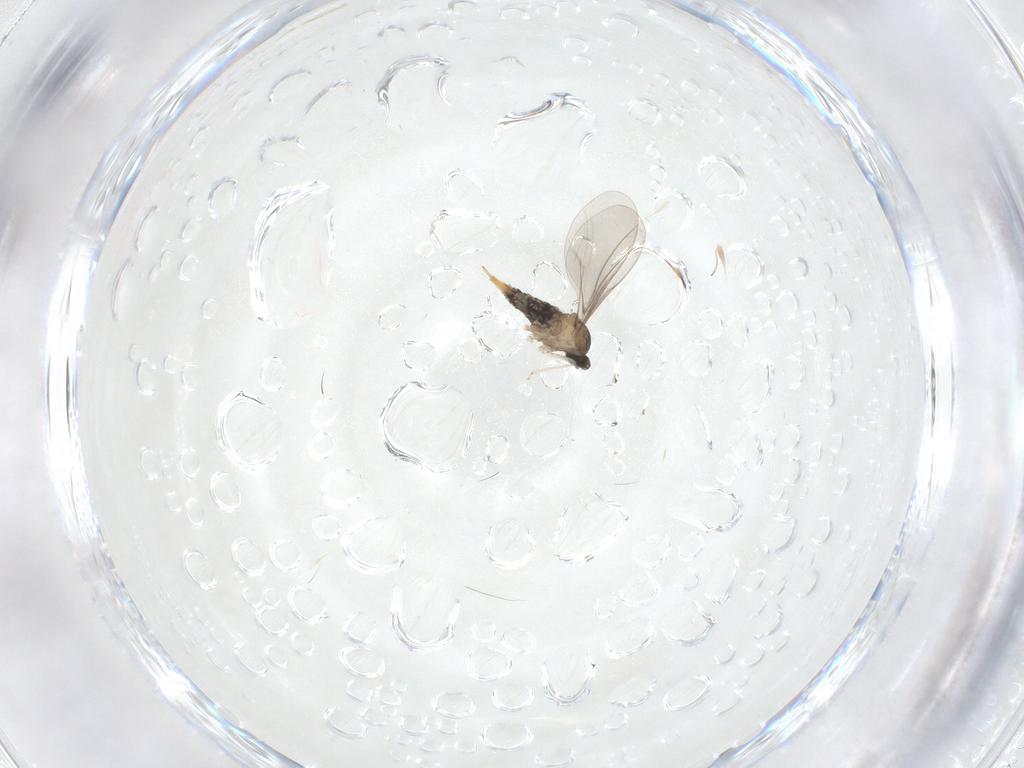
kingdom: Animalia
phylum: Arthropoda
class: Insecta
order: Diptera
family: Cecidomyiidae
